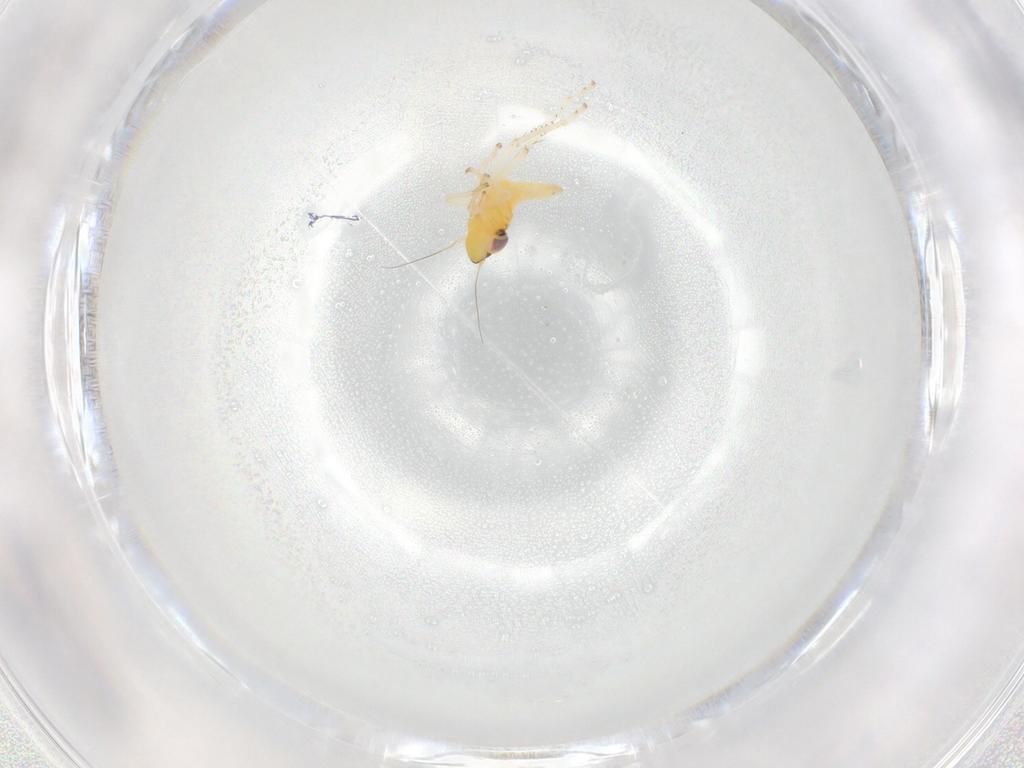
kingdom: Animalia
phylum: Arthropoda
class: Insecta
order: Hemiptera
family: Cicadellidae
